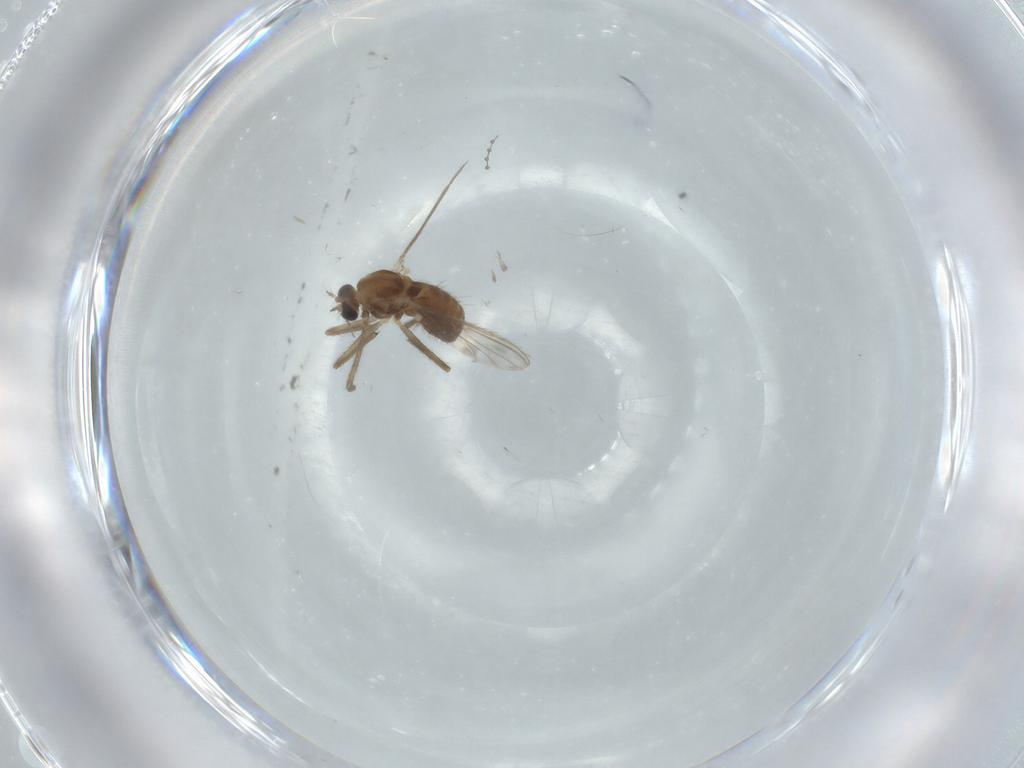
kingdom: Animalia
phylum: Arthropoda
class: Insecta
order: Diptera
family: Chironomidae
